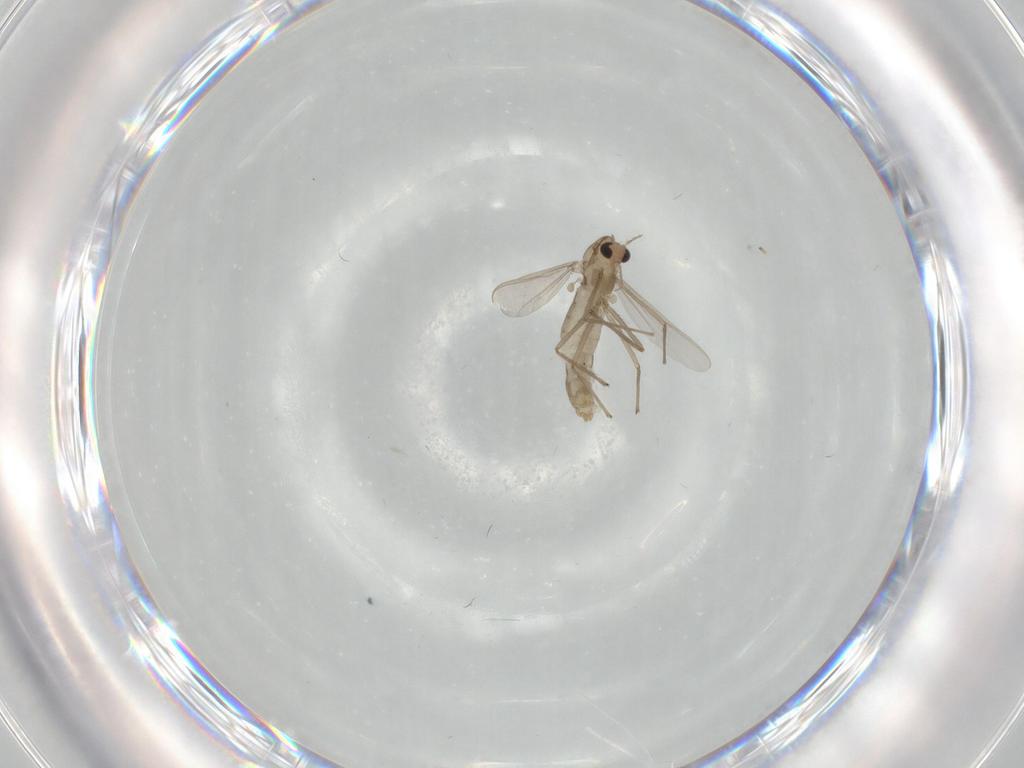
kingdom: Animalia
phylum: Arthropoda
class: Insecta
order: Diptera
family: Chironomidae
